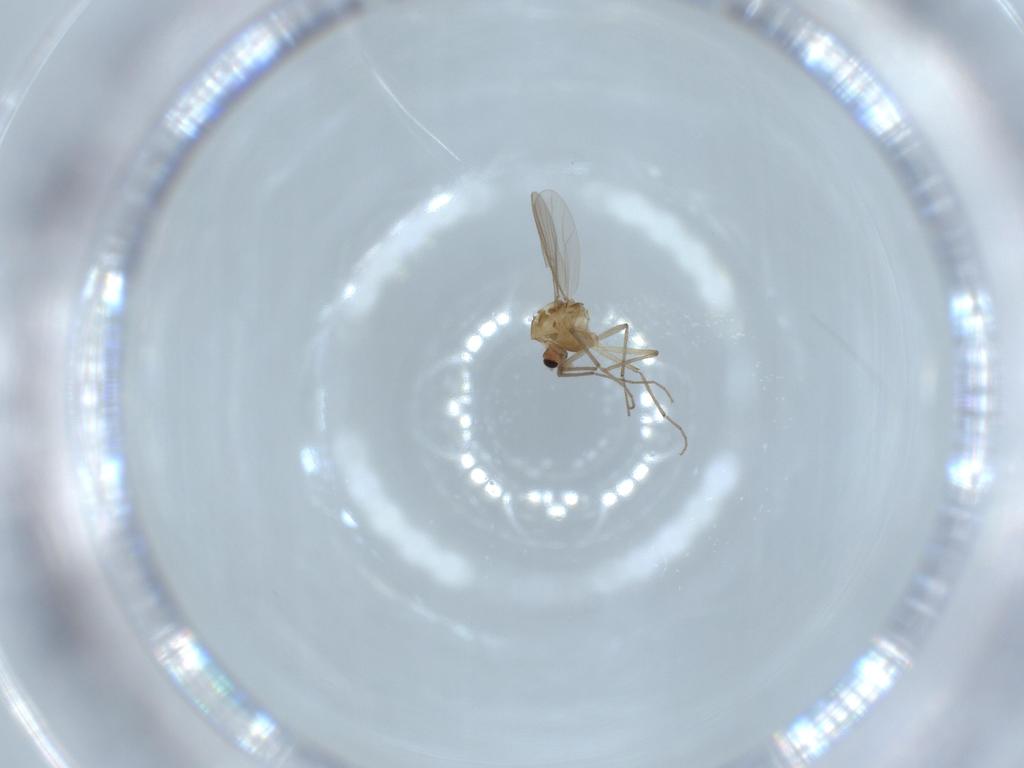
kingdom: Animalia
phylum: Arthropoda
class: Insecta
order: Diptera
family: Chironomidae
